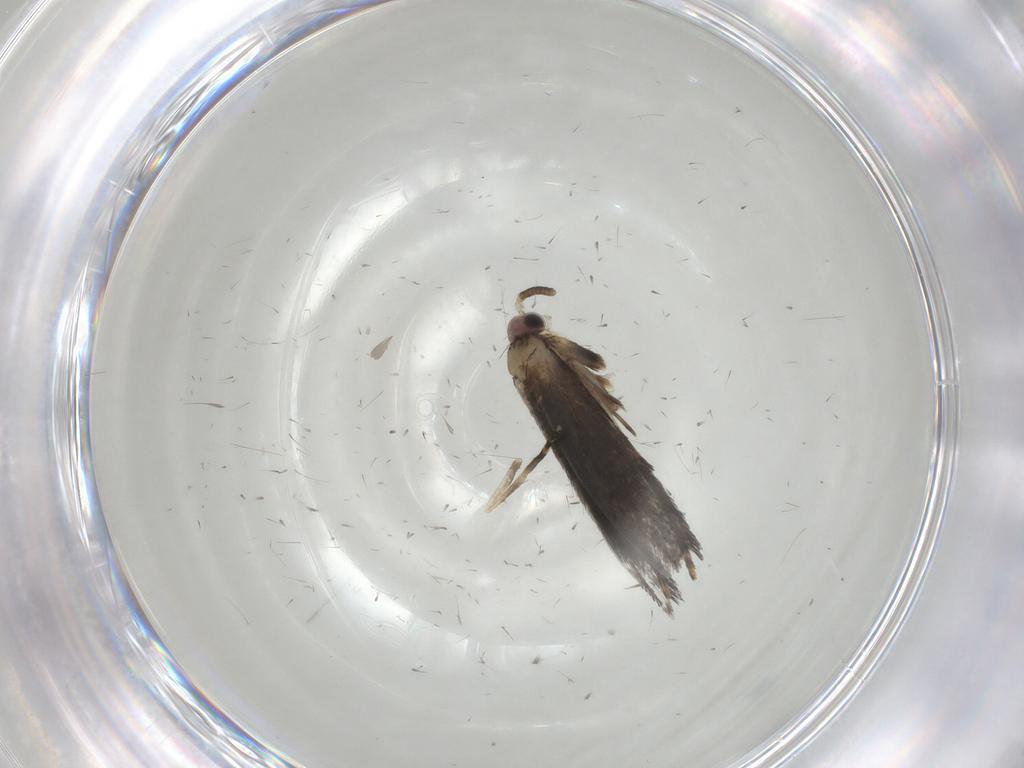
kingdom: Animalia
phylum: Arthropoda
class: Insecta
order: Lepidoptera
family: Tineidae
